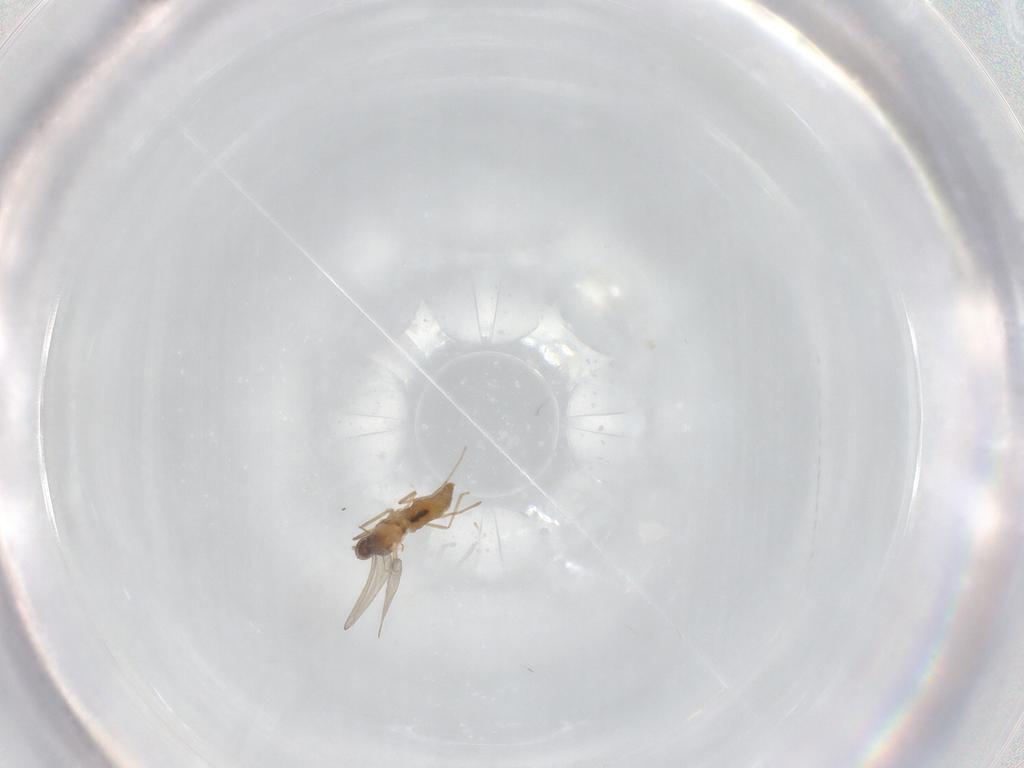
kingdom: Animalia
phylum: Arthropoda
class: Insecta
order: Diptera
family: Cecidomyiidae
